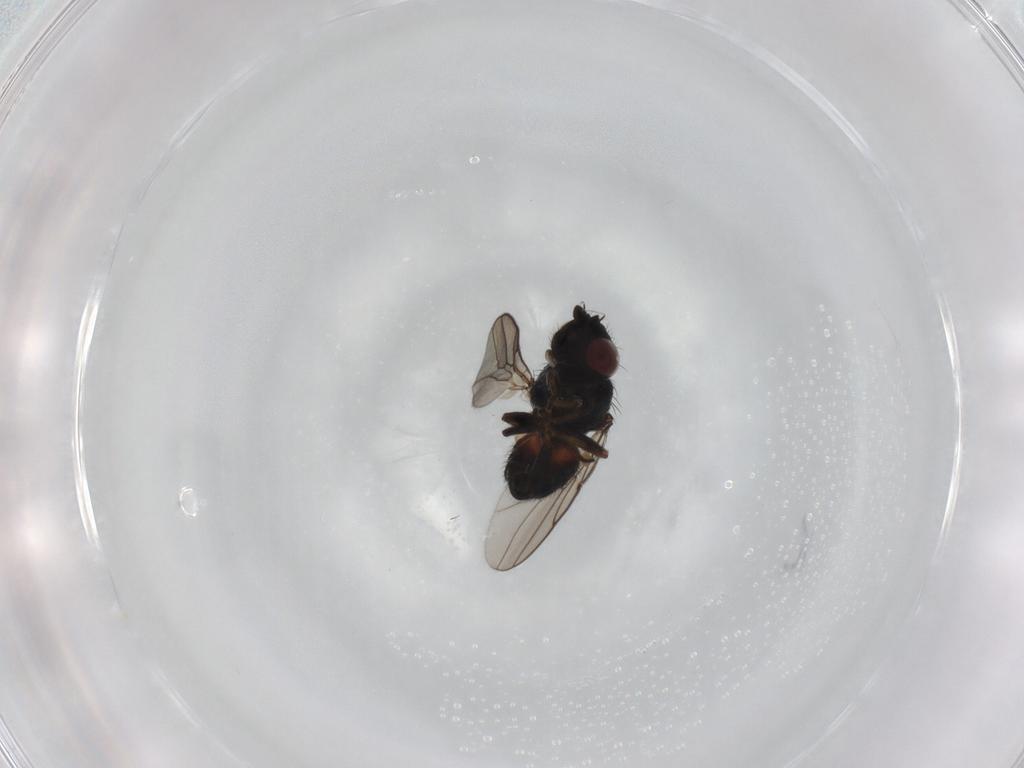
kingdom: Animalia
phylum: Arthropoda
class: Insecta
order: Diptera
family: Chloropidae
